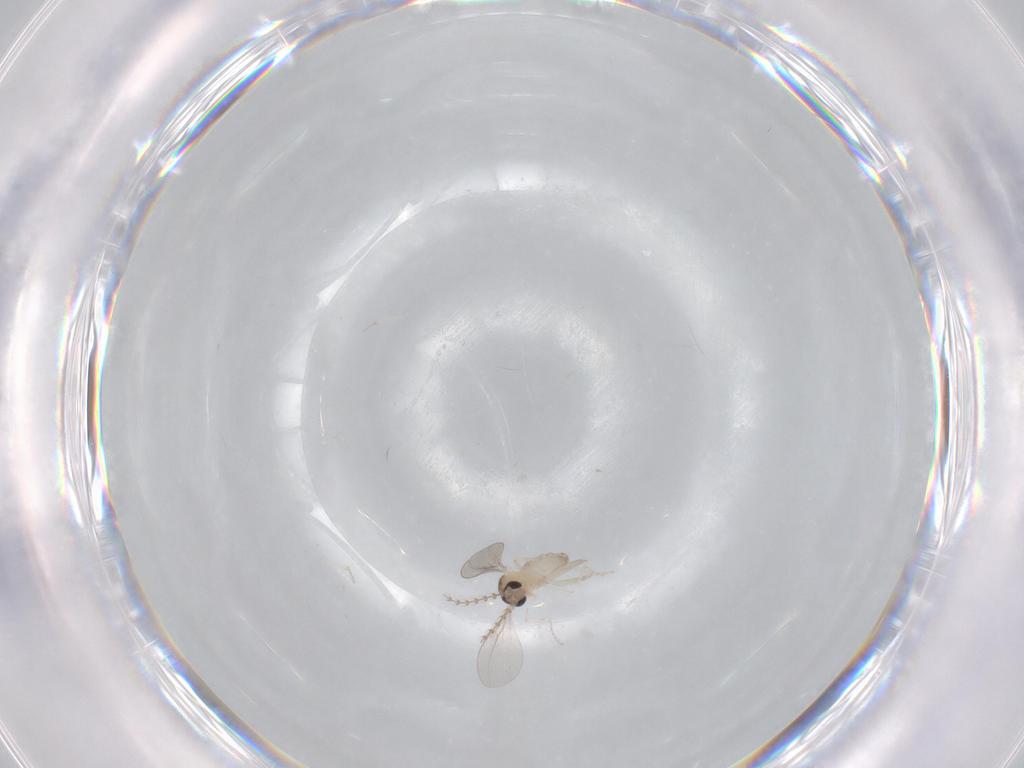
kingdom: Animalia
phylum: Arthropoda
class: Insecta
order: Diptera
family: Cecidomyiidae
